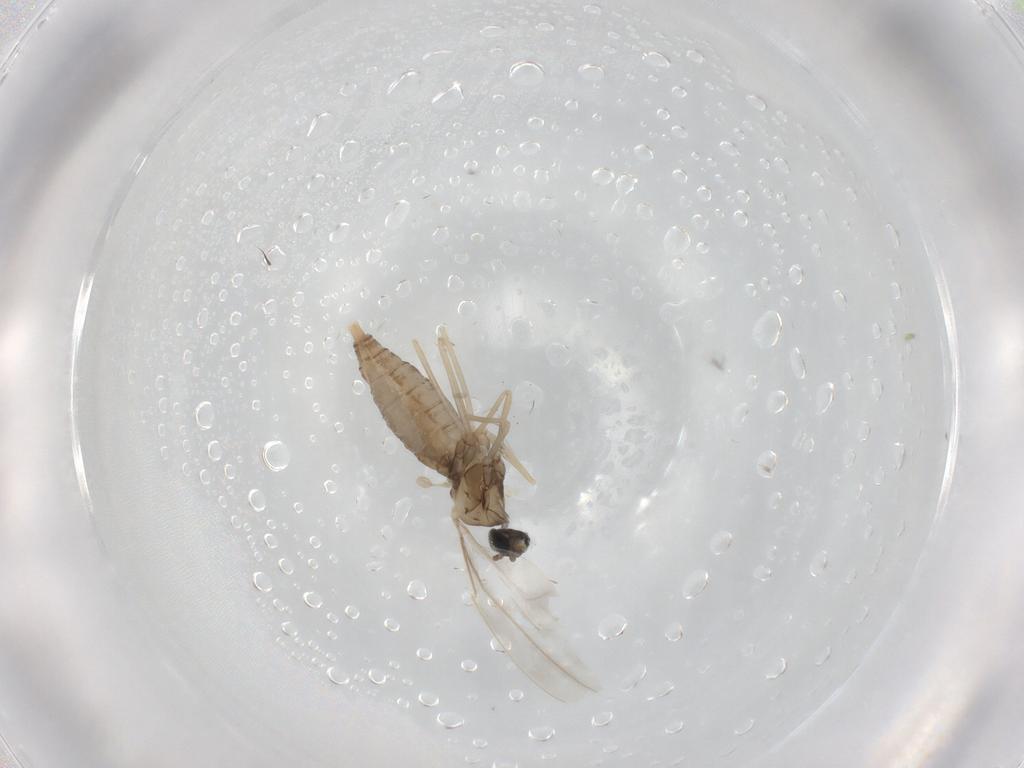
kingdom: Animalia
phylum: Arthropoda
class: Insecta
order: Diptera
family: Cecidomyiidae
